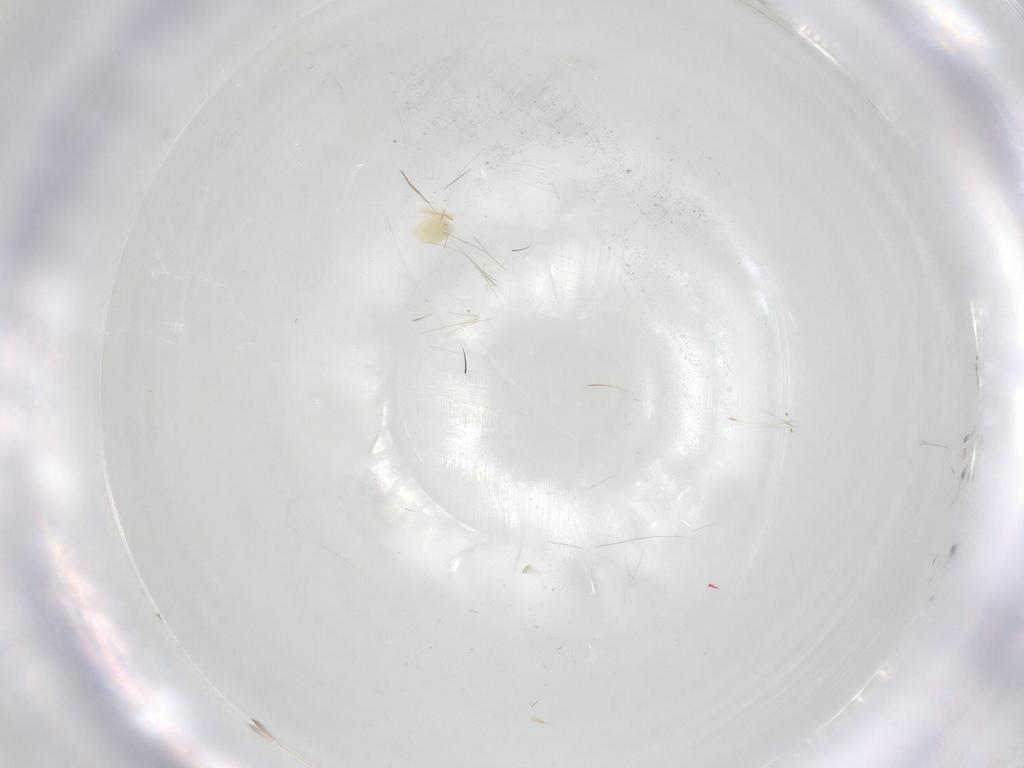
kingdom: Animalia
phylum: Arthropoda
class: Insecta
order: Blattodea
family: Ectobiidae
